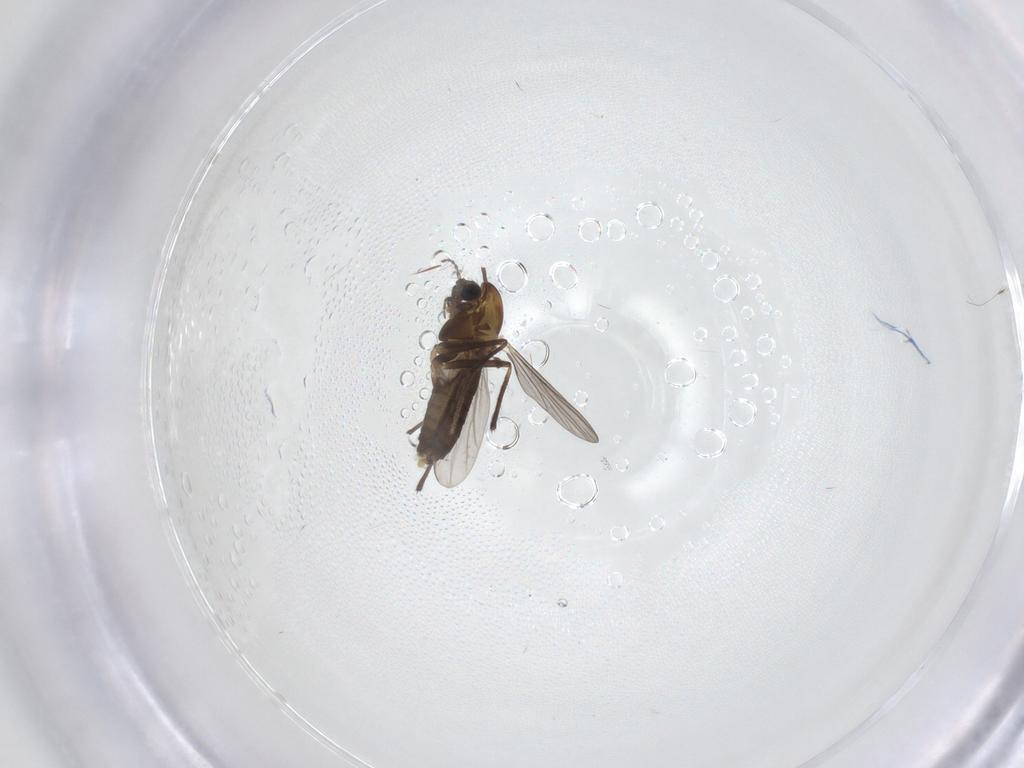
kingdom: Animalia
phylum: Arthropoda
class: Insecta
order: Diptera
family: Chironomidae
